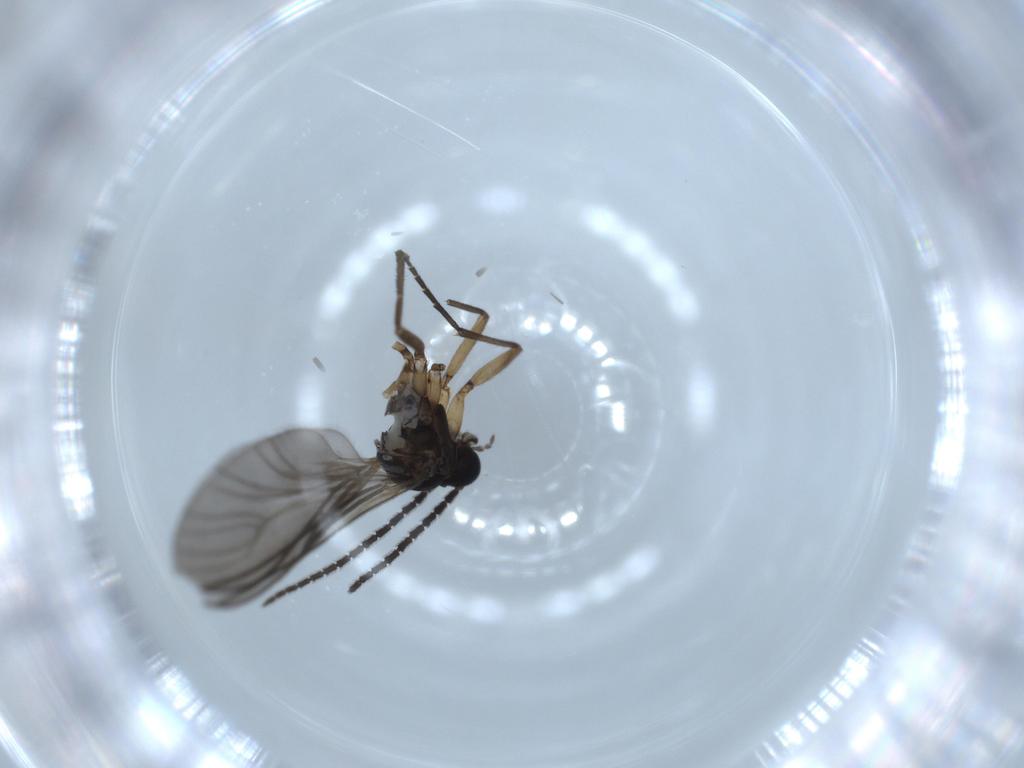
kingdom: Animalia
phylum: Arthropoda
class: Insecta
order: Diptera
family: Sciaridae
